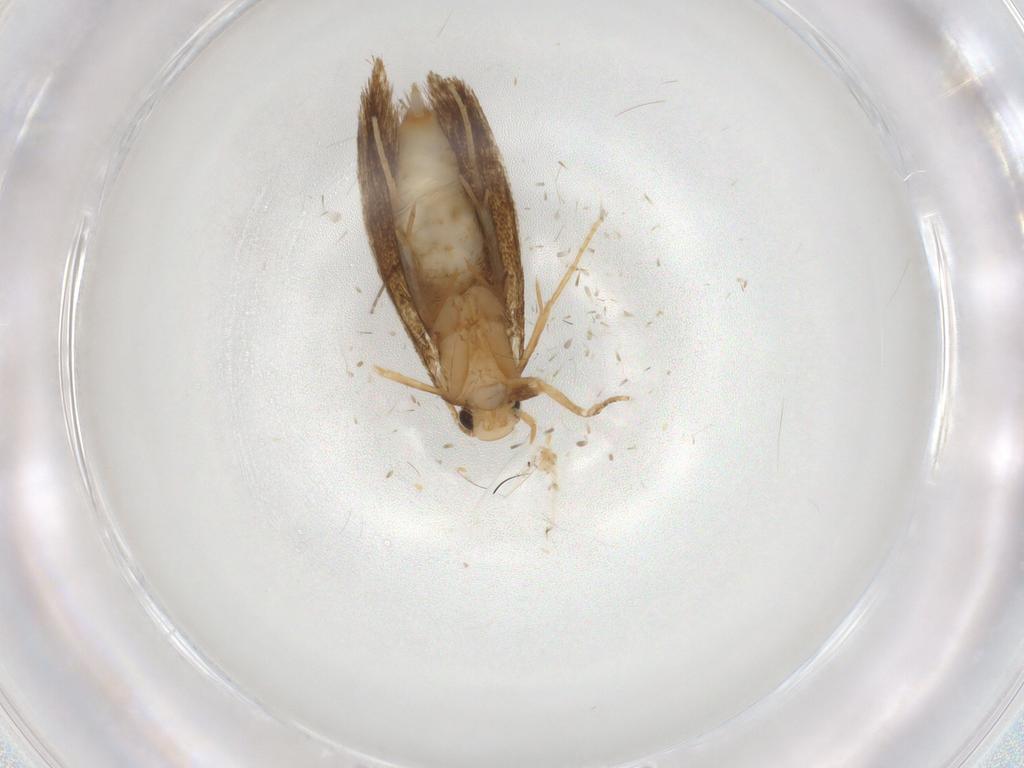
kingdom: Animalia
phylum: Arthropoda
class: Insecta
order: Lepidoptera
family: Tineidae
